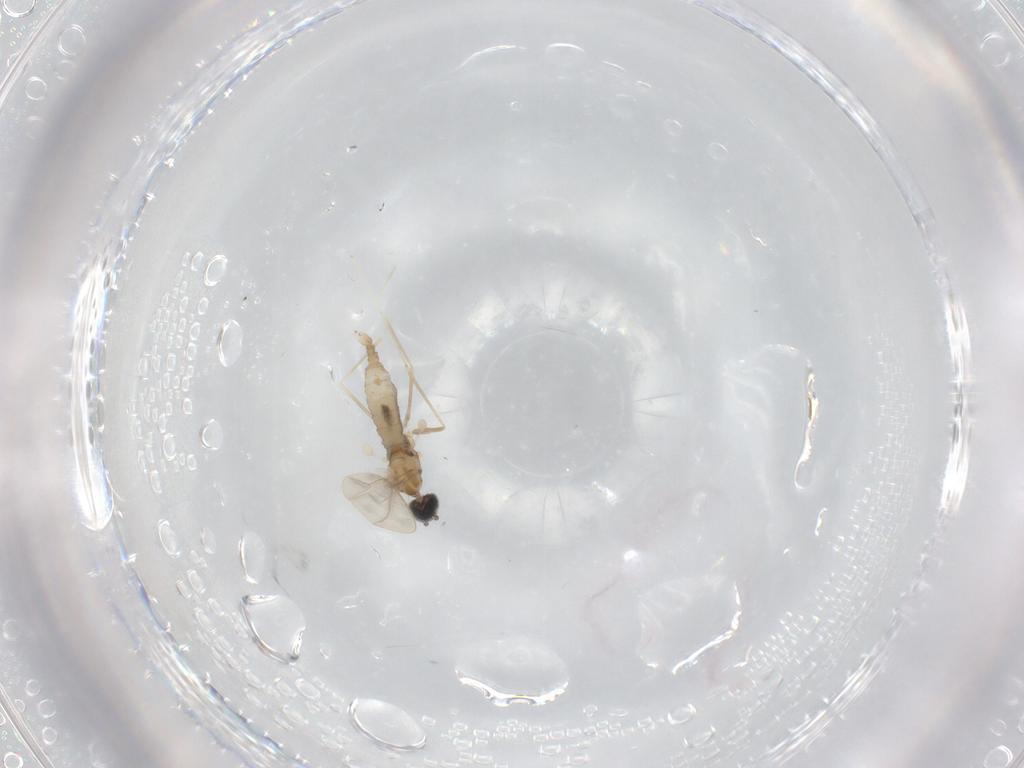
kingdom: Animalia
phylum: Arthropoda
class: Insecta
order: Diptera
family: Cecidomyiidae
